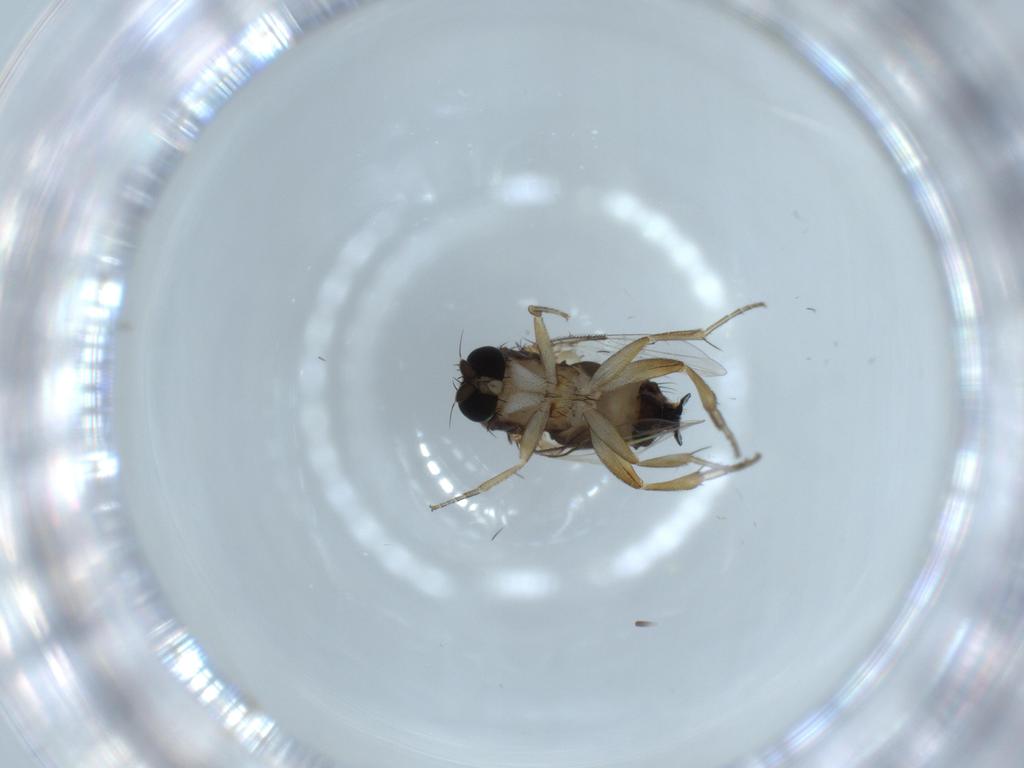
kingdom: Animalia
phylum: Arthropoda
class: Insecta
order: Diptera
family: Phoridae
